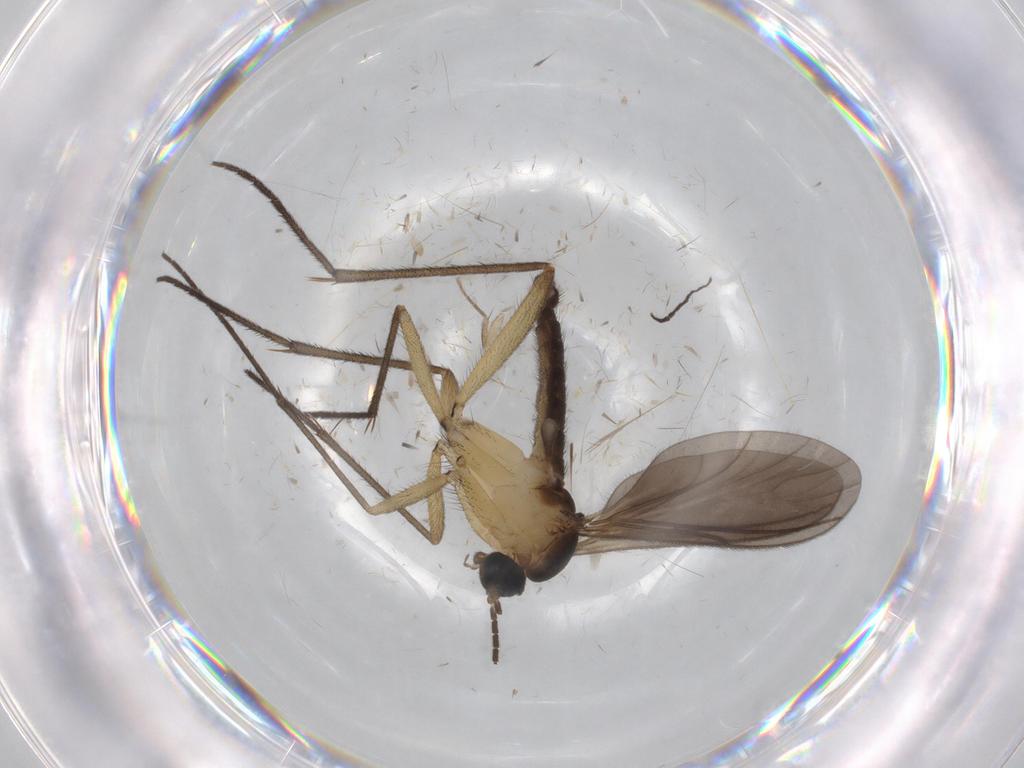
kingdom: Animalia
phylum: Arthropoda
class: Insecta
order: Diptera
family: Sciaridae
